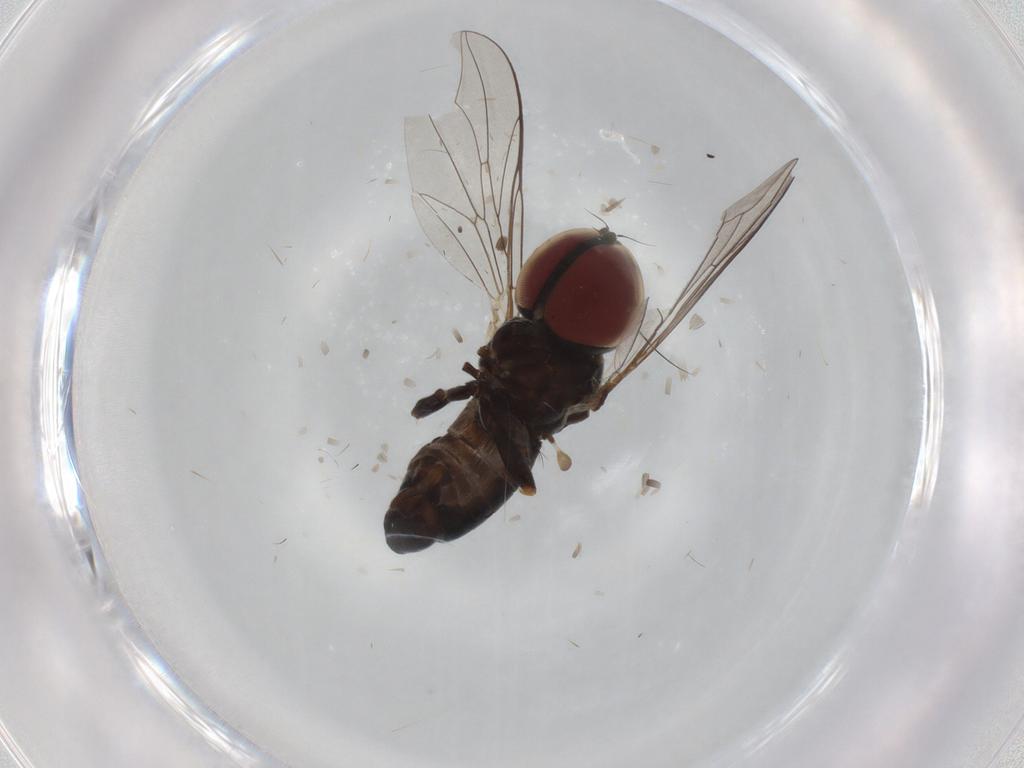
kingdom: Animalia
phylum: Arthropoda
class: Insecta
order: Diptera
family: Pipunculidae
